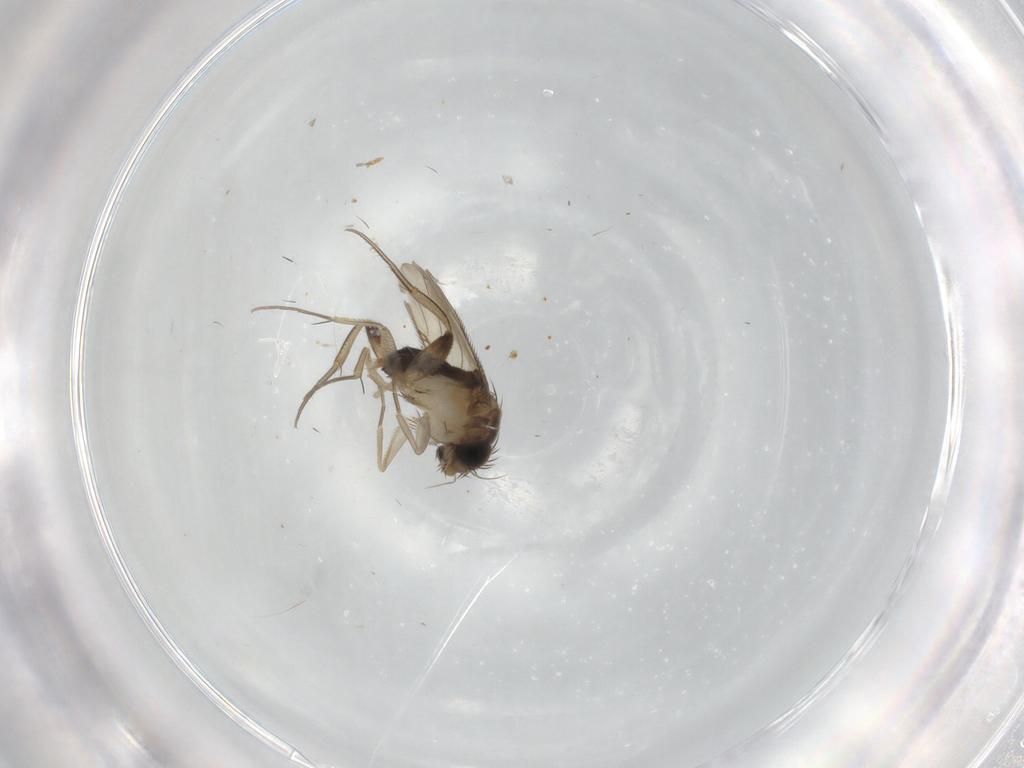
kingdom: Animalia
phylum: Arthropoda
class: Insecta
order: Diptera
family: Phoridae
